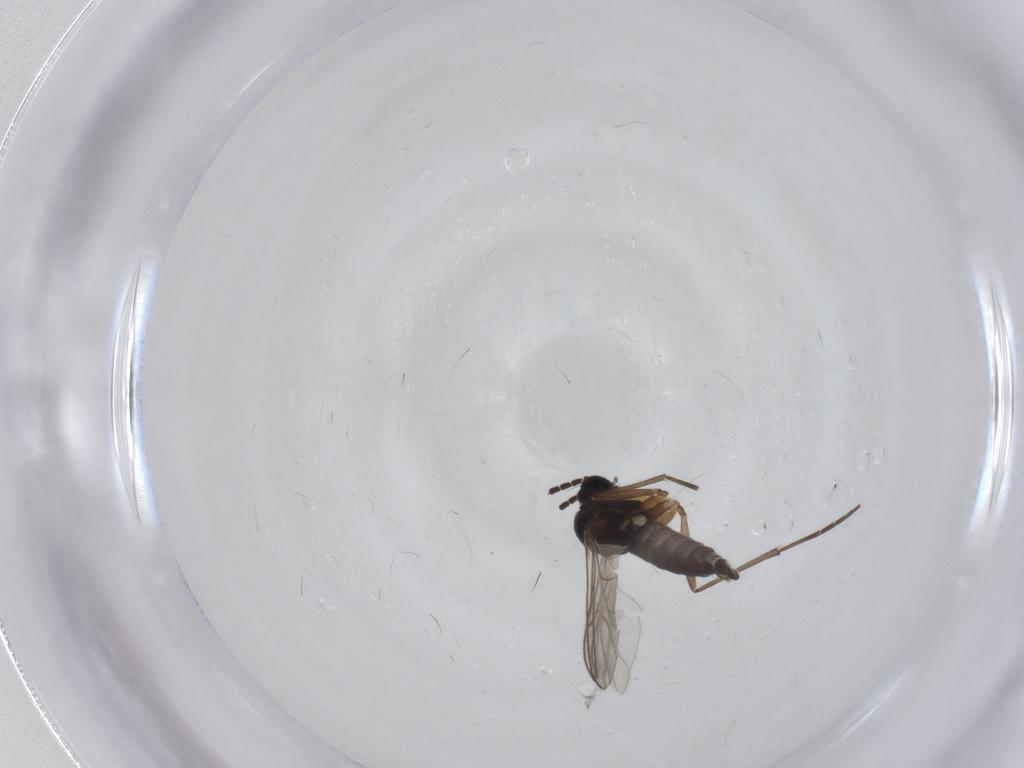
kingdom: Animalia
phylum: Arthropoda
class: Insecta
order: Diptera
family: Sciaridae
